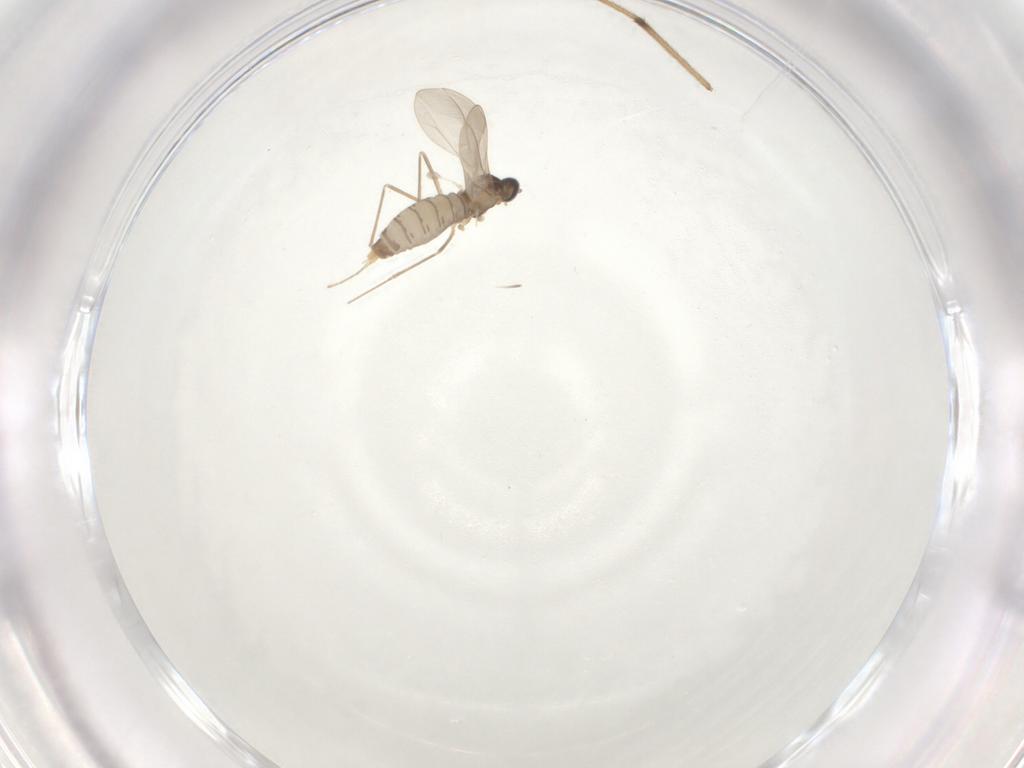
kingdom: Animalia
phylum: Arthropoda
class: Insecta
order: Diptera
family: Chironomidae
